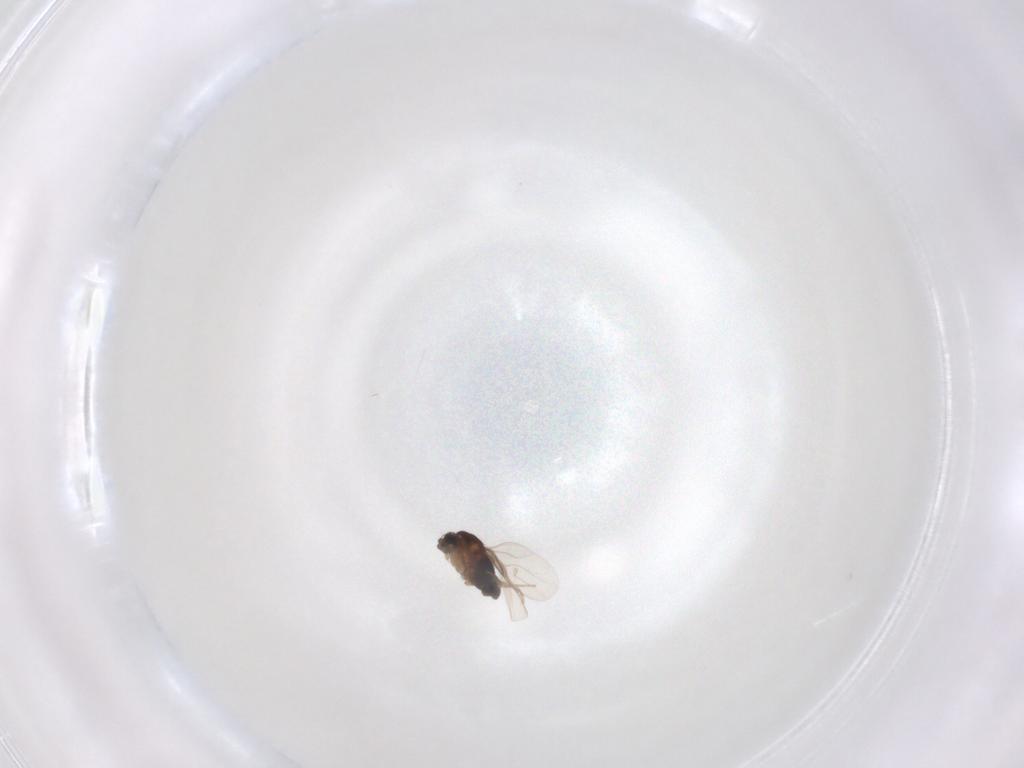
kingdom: Animalia
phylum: Arthropoda
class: Insecta
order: Diptera
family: Phoridae
